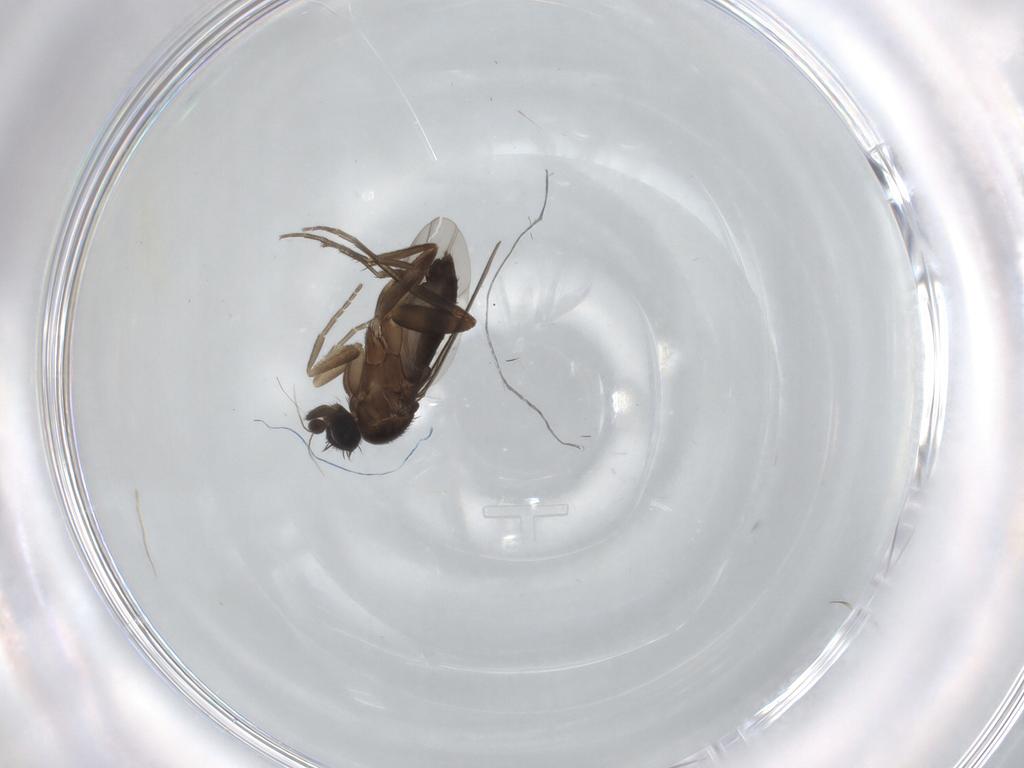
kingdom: Animalia
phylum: Arthropoda
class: Insecta
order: Diptera
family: Phoridae
